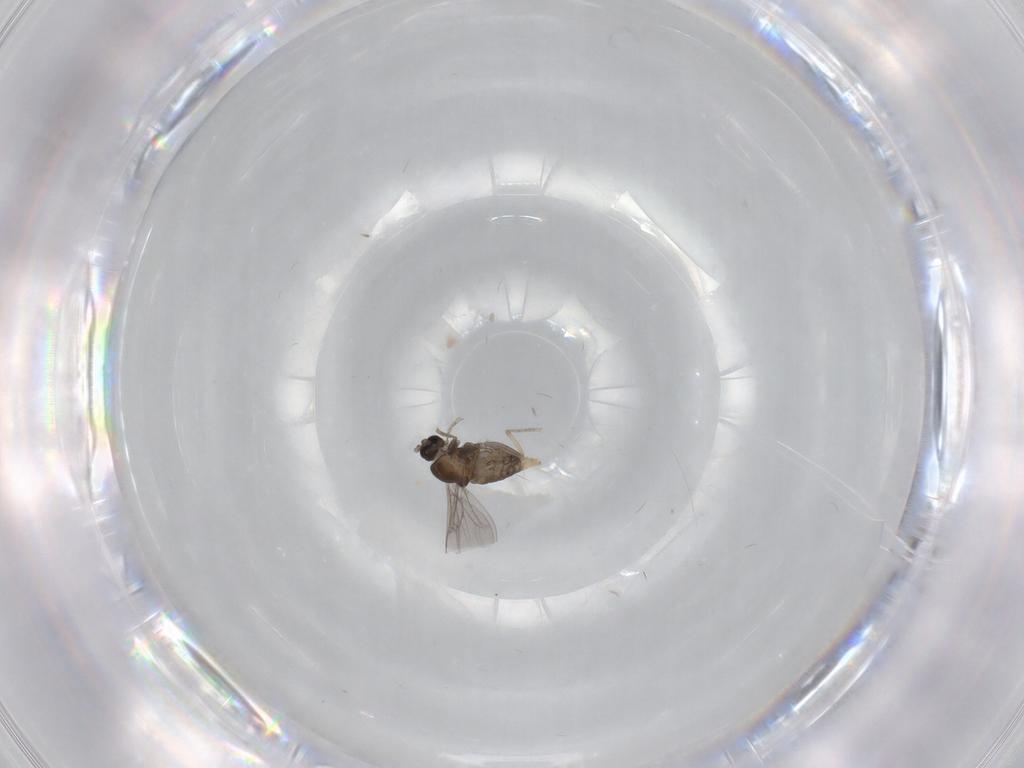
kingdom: Animalia
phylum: Arthropoda
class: Insecta
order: Diptera
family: Cecidomyiidae
